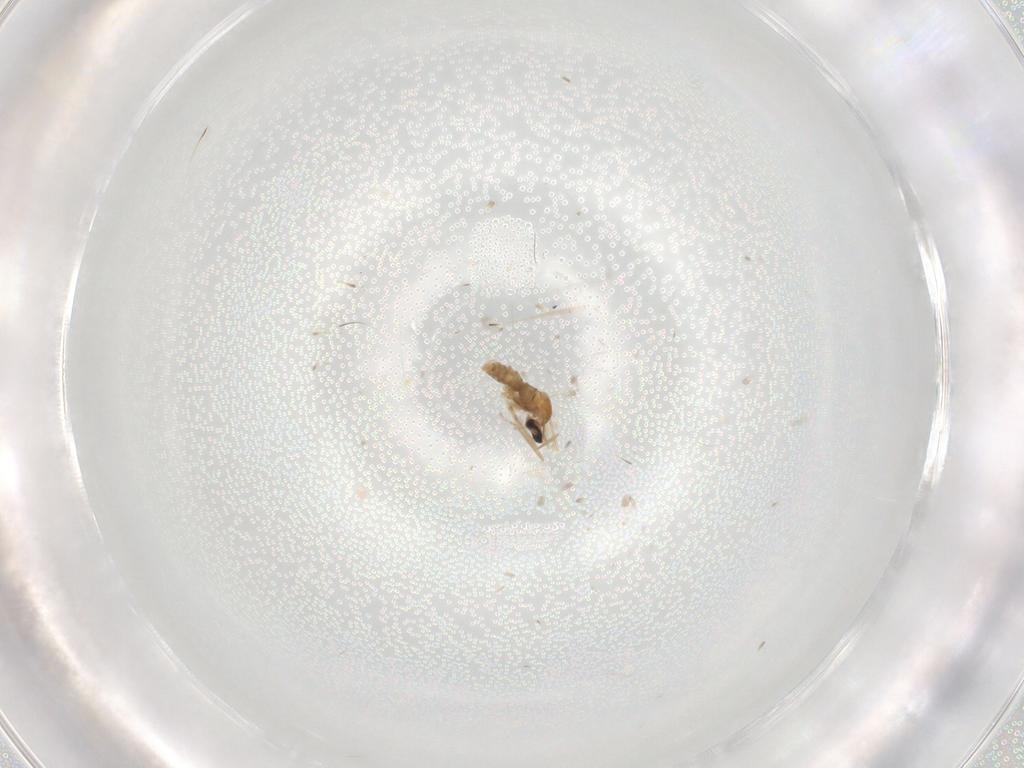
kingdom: Animalia
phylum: Arthropoda
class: Insecta
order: Diptera
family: Cecidomyiidae
